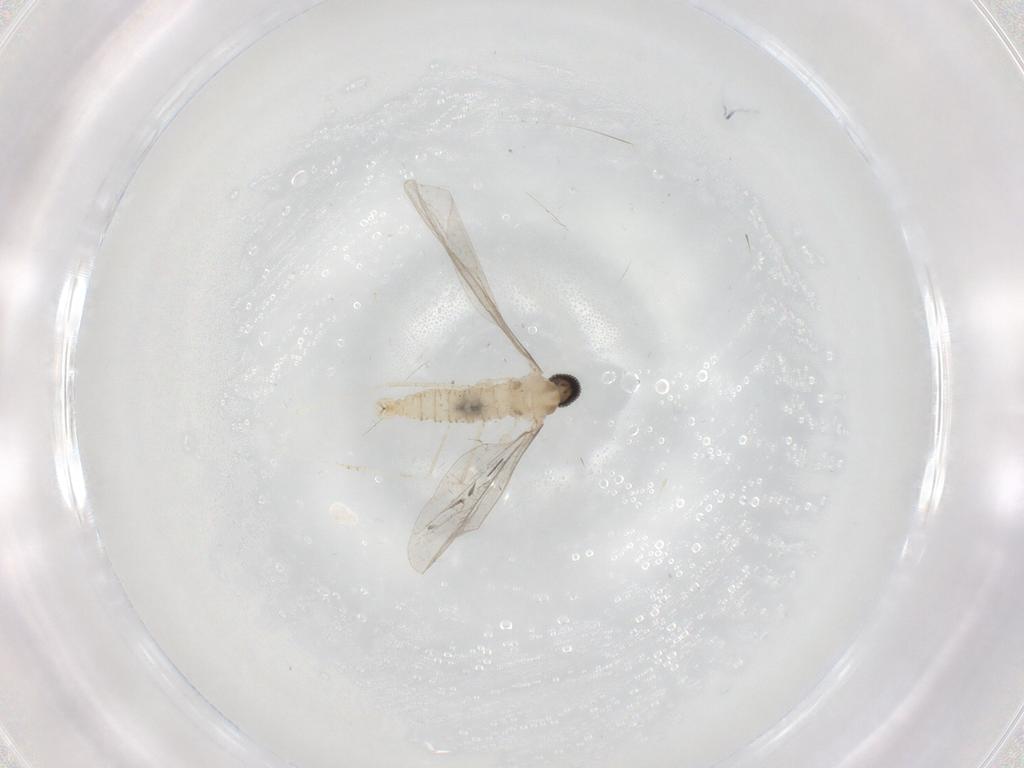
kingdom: Animalia
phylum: Arthropoda
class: Insecta
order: Diptera
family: Cecidomyiidae
